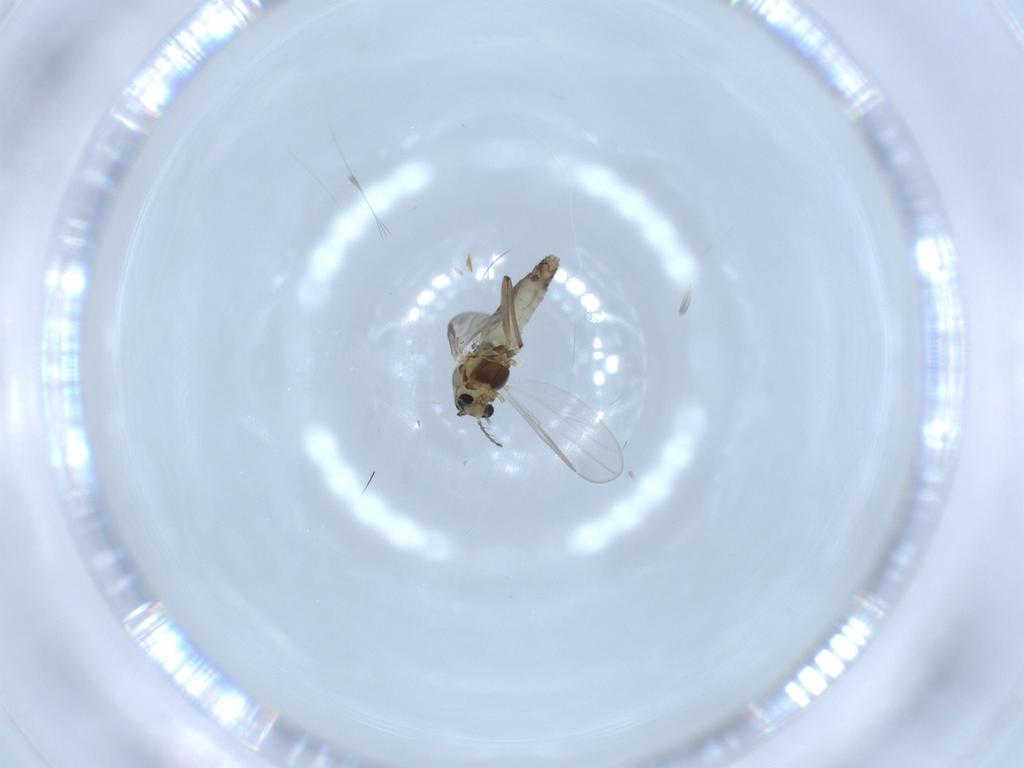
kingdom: Animalia
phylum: Arthropoda
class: Insecta
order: Diptera
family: Chironomidae
